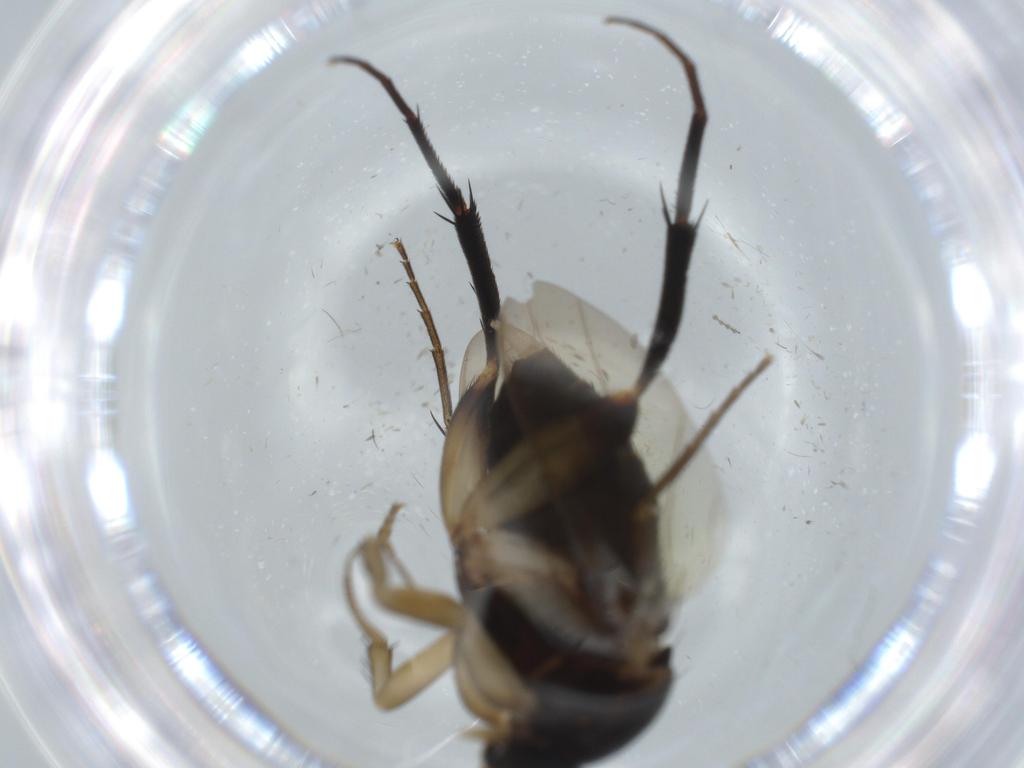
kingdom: Animalia
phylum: Arthropoda
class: Insecta
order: Diptera
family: Phoridae
